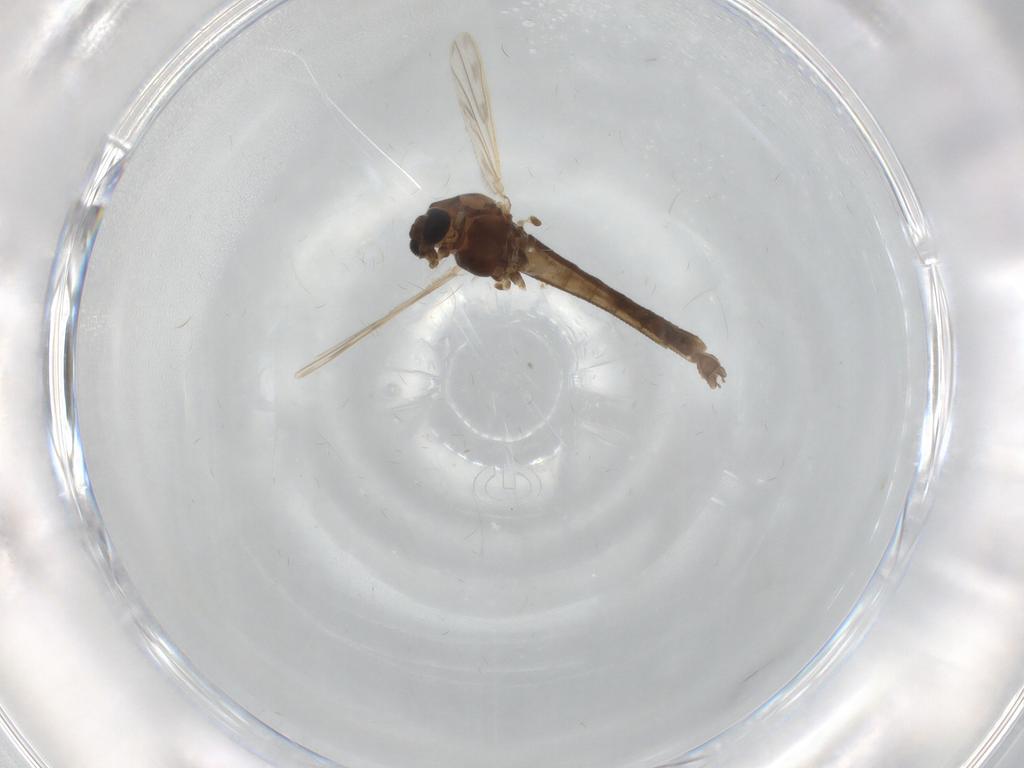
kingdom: Animalia
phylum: Arthropoda
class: Insecta
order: Diptera
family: Chironomidae
